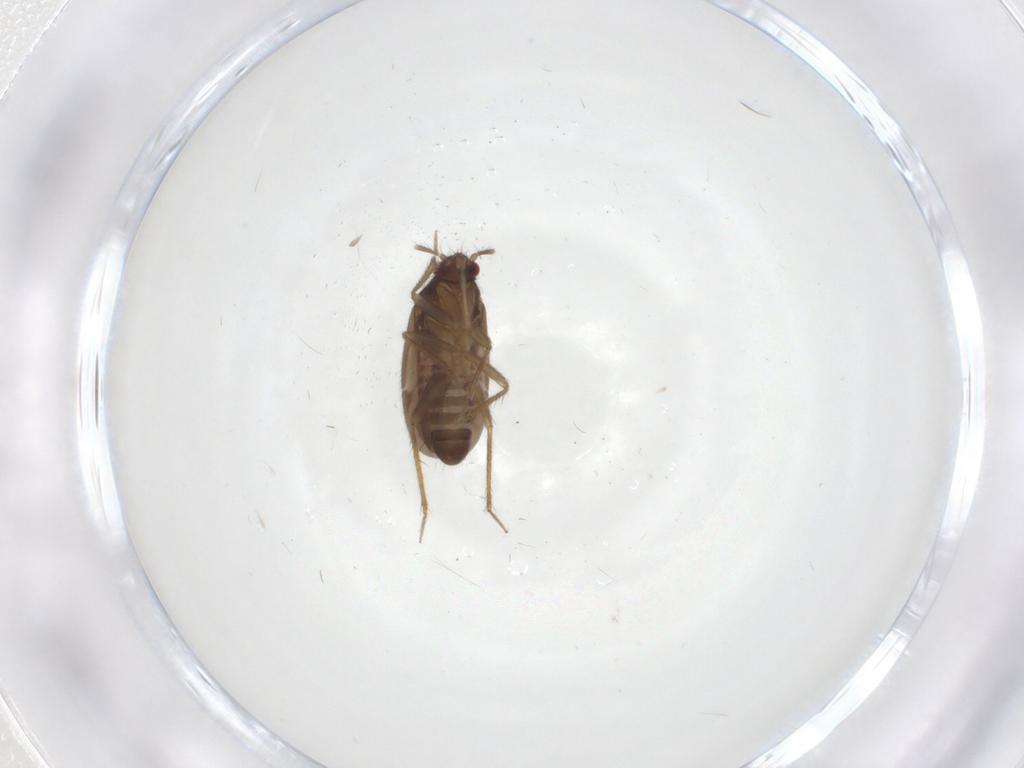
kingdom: Animalia
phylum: Arthropoda
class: Insecta
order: Hemiptera
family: Ceratocombidae
